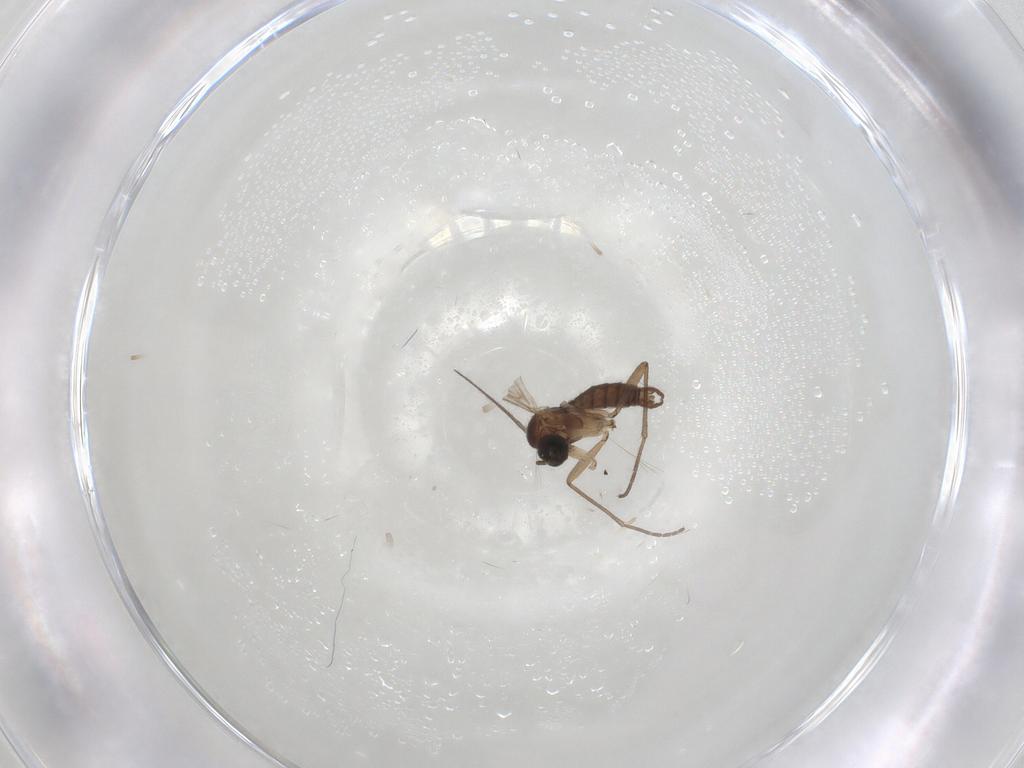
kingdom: Animalia
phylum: Arthropoda
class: Insecta
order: Diptera
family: Sciaridae
